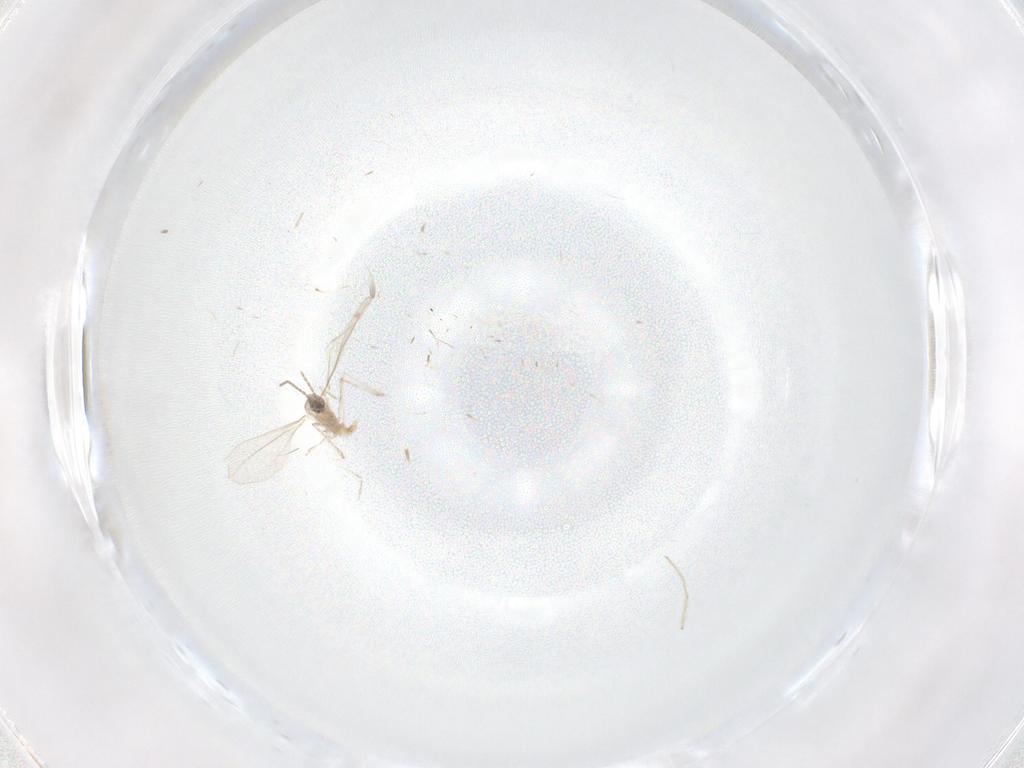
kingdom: Animalia
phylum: Arthropoda
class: Insecta
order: Diptera
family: Chironomidae
